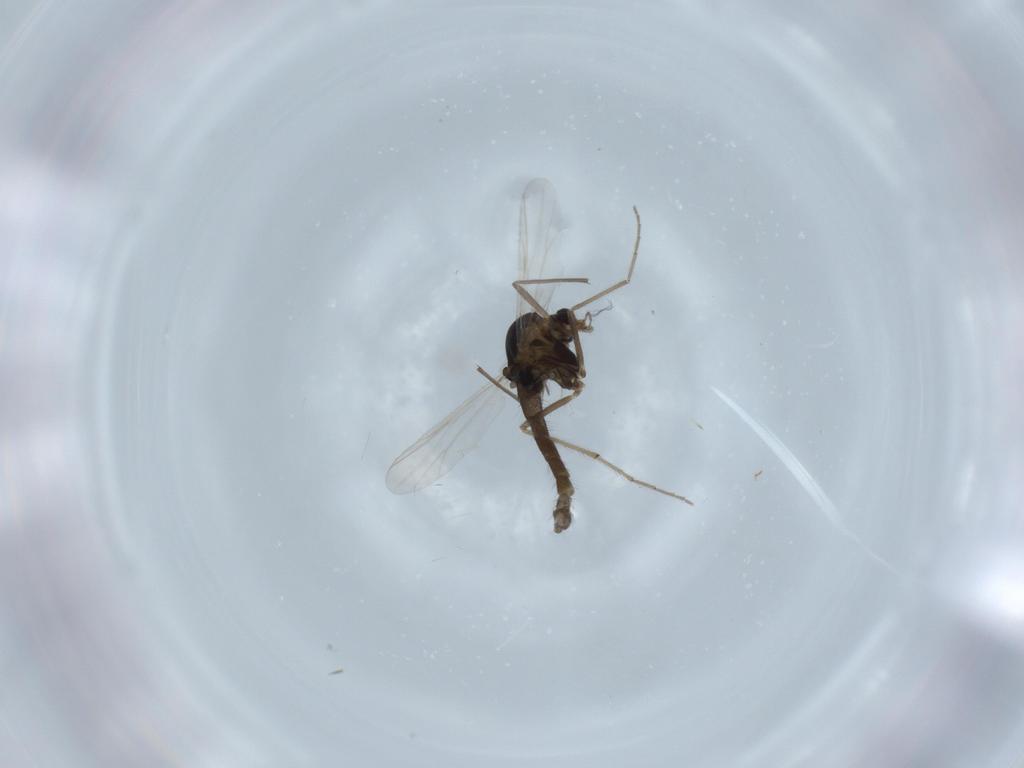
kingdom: Animalia
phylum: Arthropoda
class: Insecta
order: Diptera
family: Chironomidae
